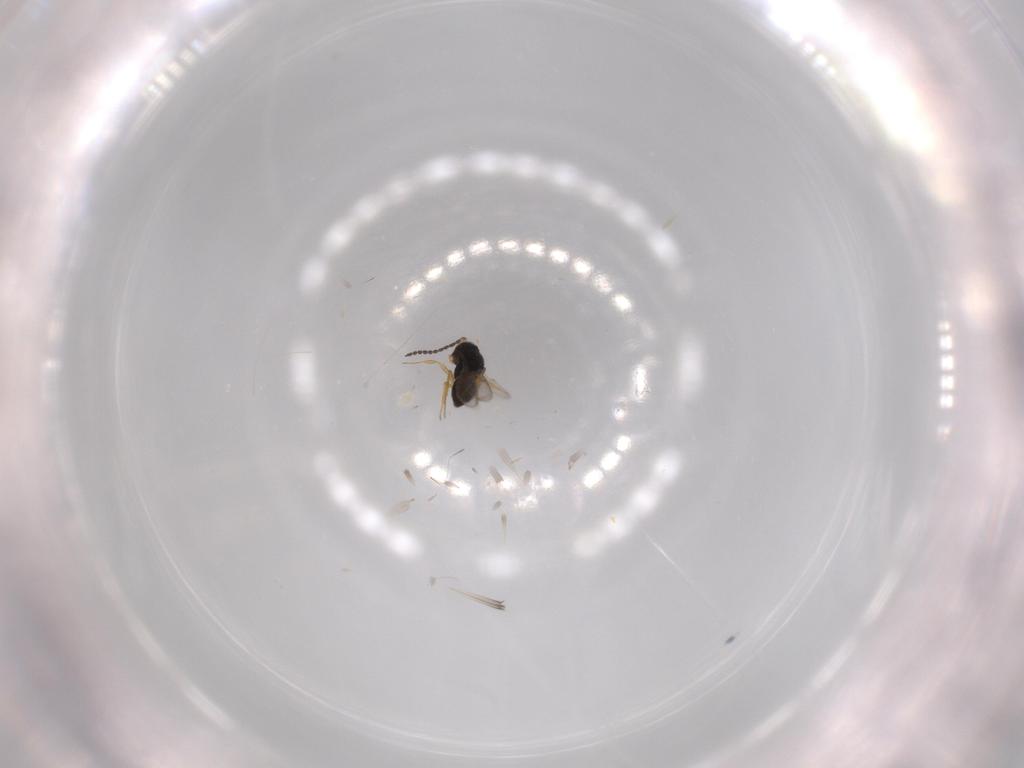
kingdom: Animalia
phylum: Arthropoda
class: Insecta
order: Hymenoptera
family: Scelionidae
